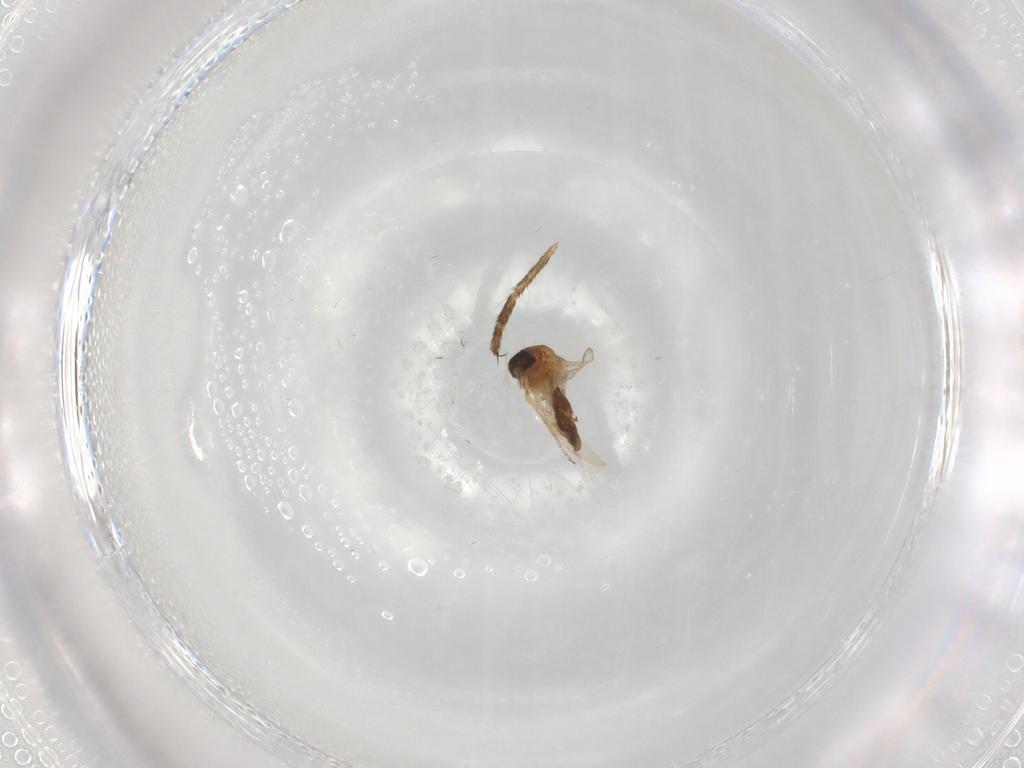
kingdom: Animalia
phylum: Arthropoda
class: Insecta
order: Diptera
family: Ceratopogonidae
